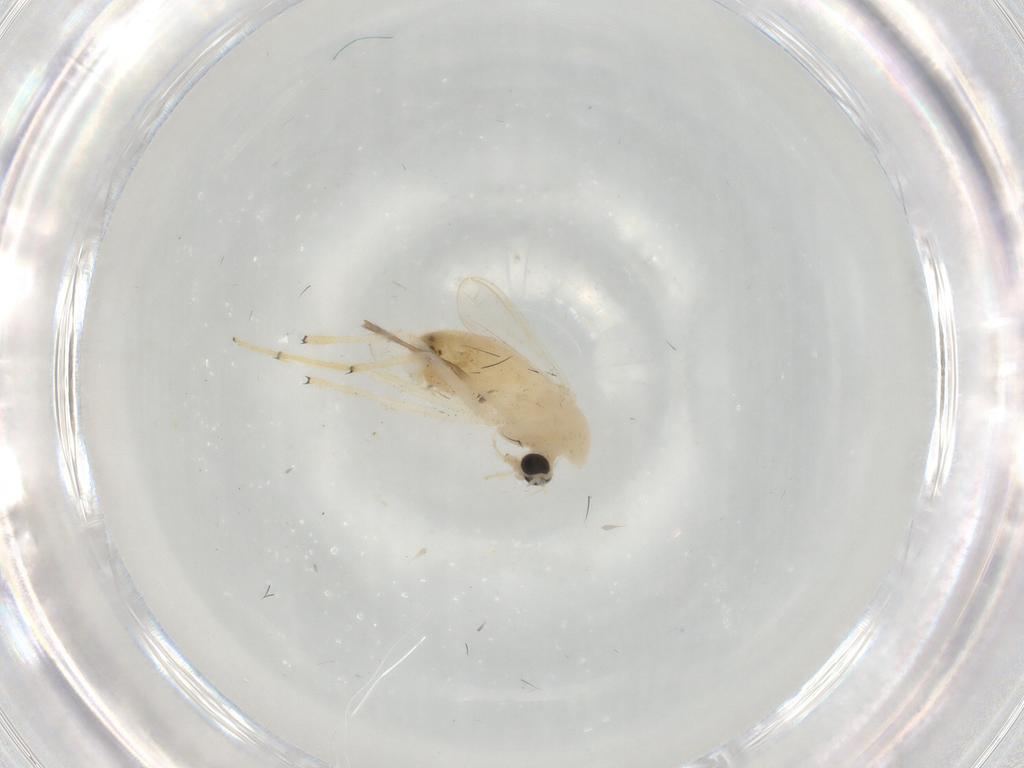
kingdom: Animalia
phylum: Arthropoda
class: Insecta
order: Diptera
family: Chironomidae
